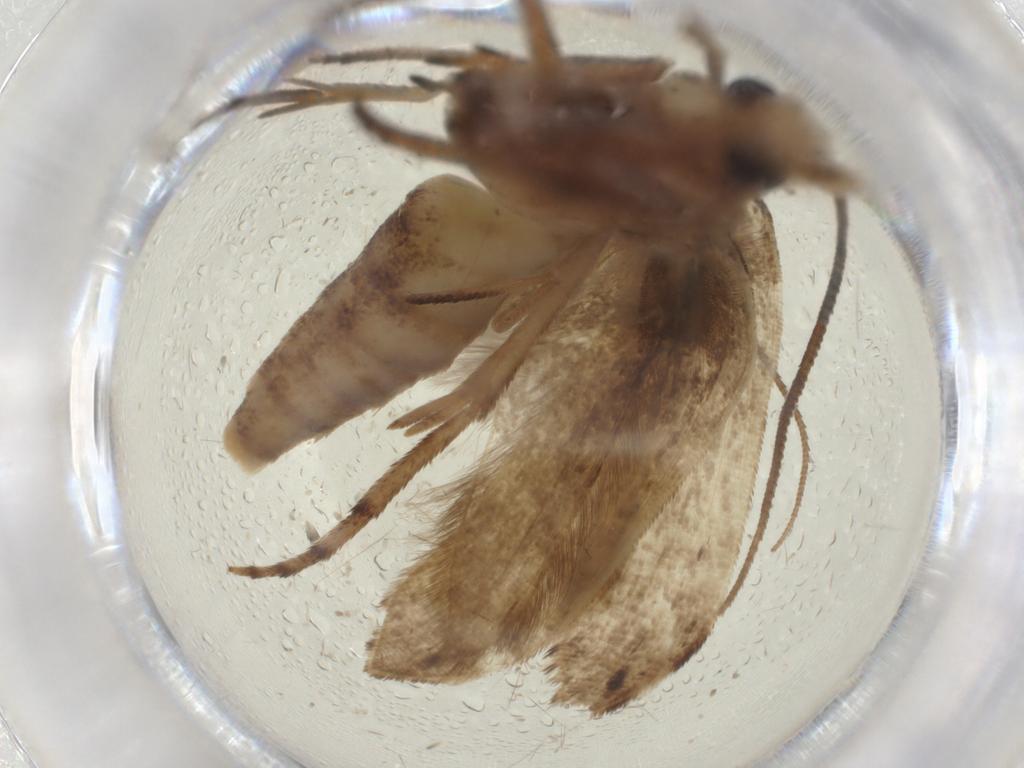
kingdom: Animalia
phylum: Arthropoda
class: Insecta
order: Lepidoptera
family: Yponomeutidae
